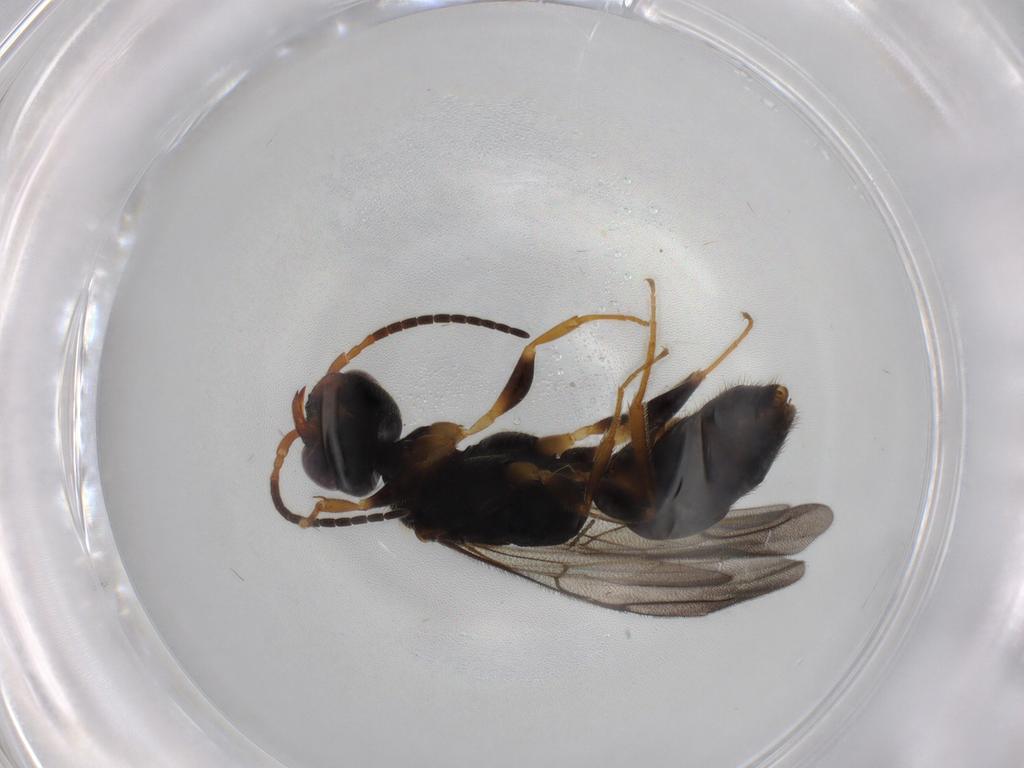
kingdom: Animalia
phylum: Arthropoda
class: Insecta
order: Hymenoptera
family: Bethylidae
